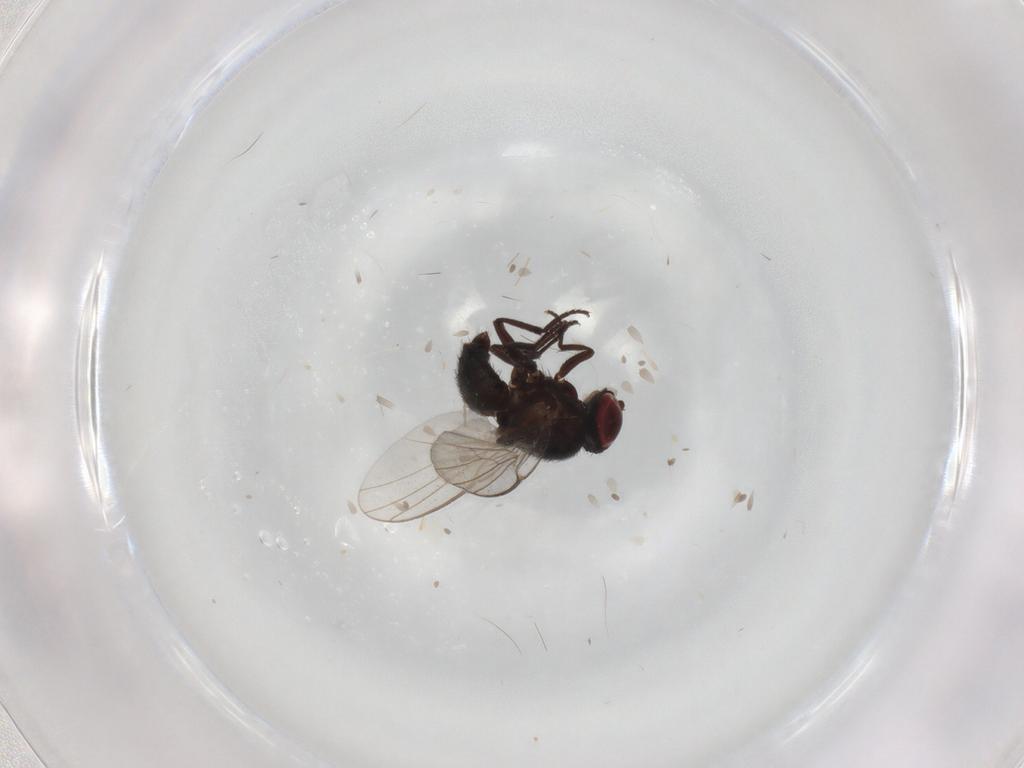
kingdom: Animalia
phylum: Arthropoda
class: Insecta
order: Diptera
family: Agromyzidae
